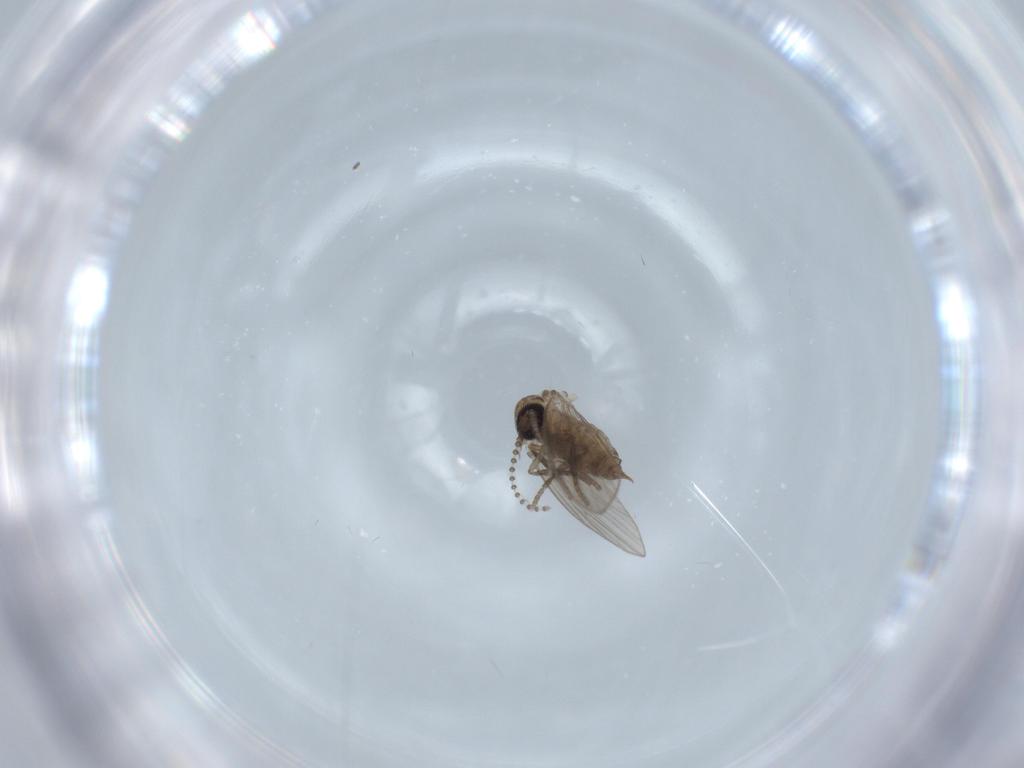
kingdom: Animalia
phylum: Arthropoda
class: Insecta
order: Diptera
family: Psychodidae
